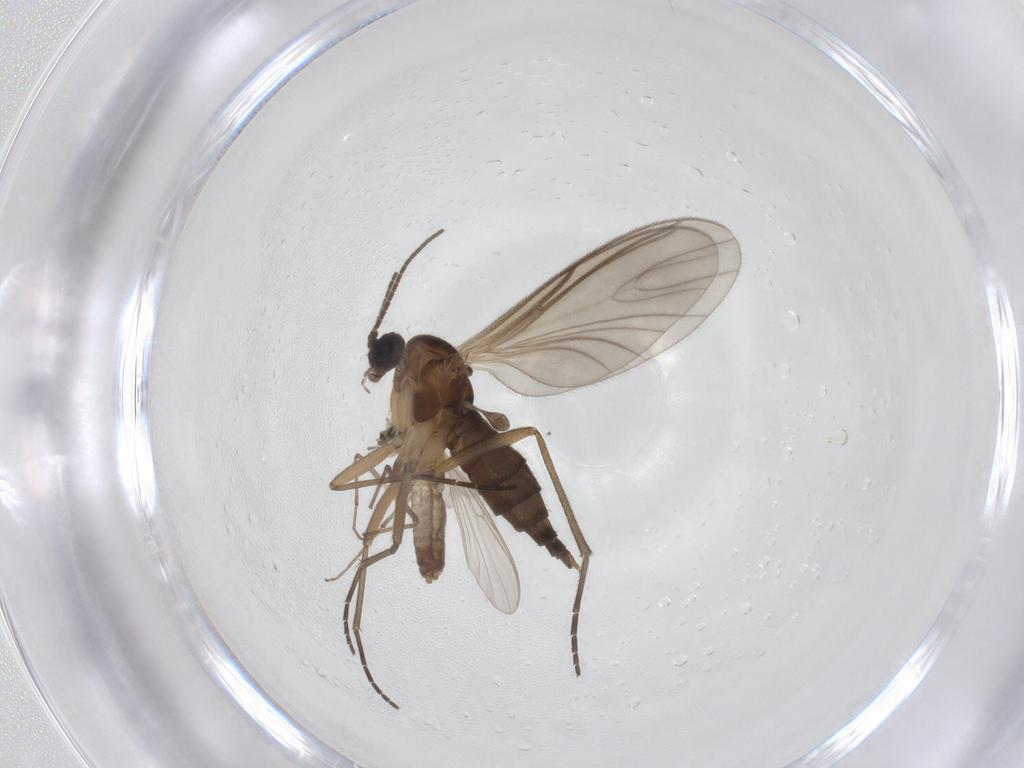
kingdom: Animalia
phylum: Arthropoda
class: Insecta
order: Diptera
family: Sciaridae
